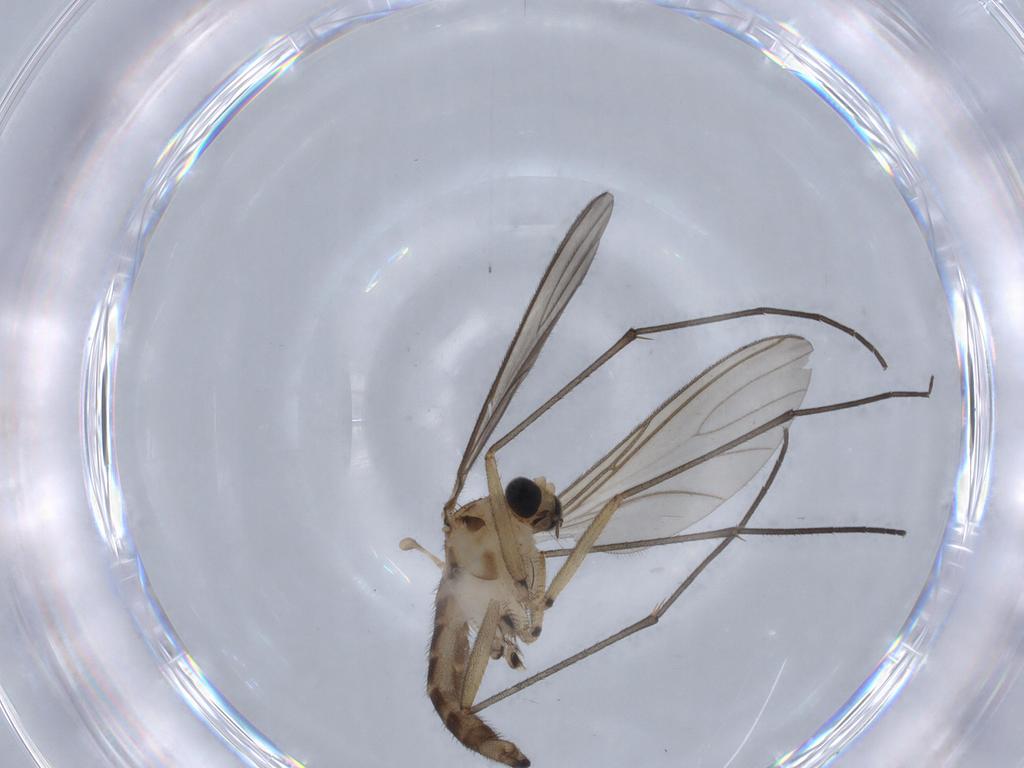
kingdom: Animalia
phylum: Arthropoda
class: Insecta
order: Diptera
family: Sciaridae
